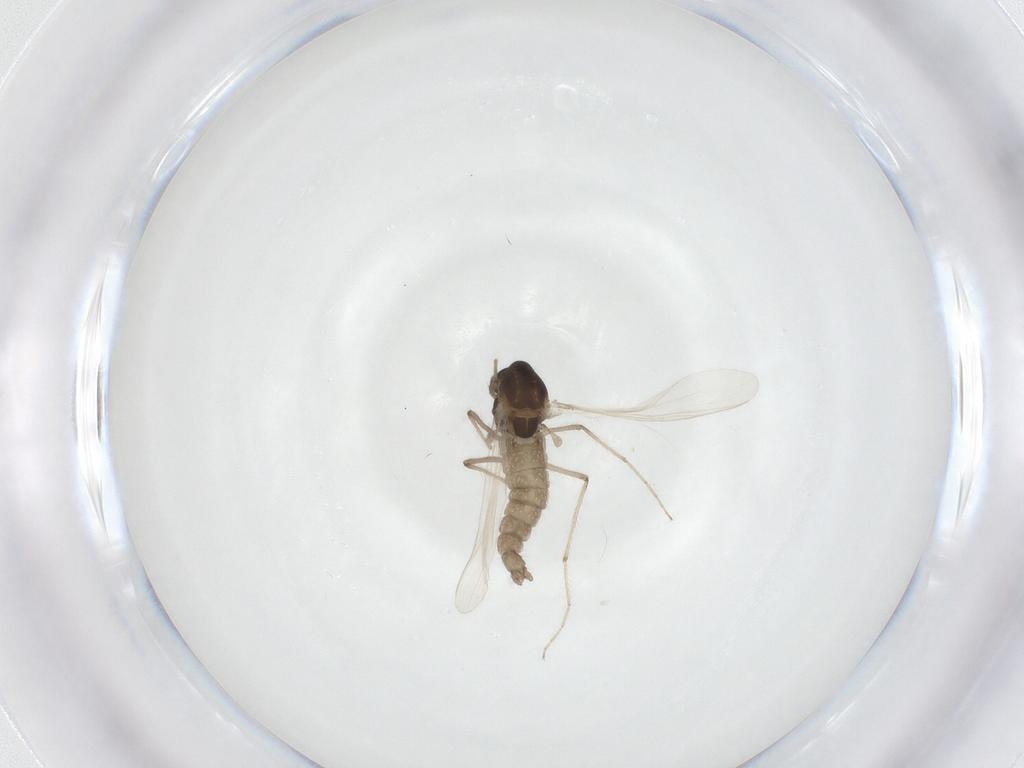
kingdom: Animalia
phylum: Arthropoda
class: Insecta
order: Diptera
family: Chironomidae
